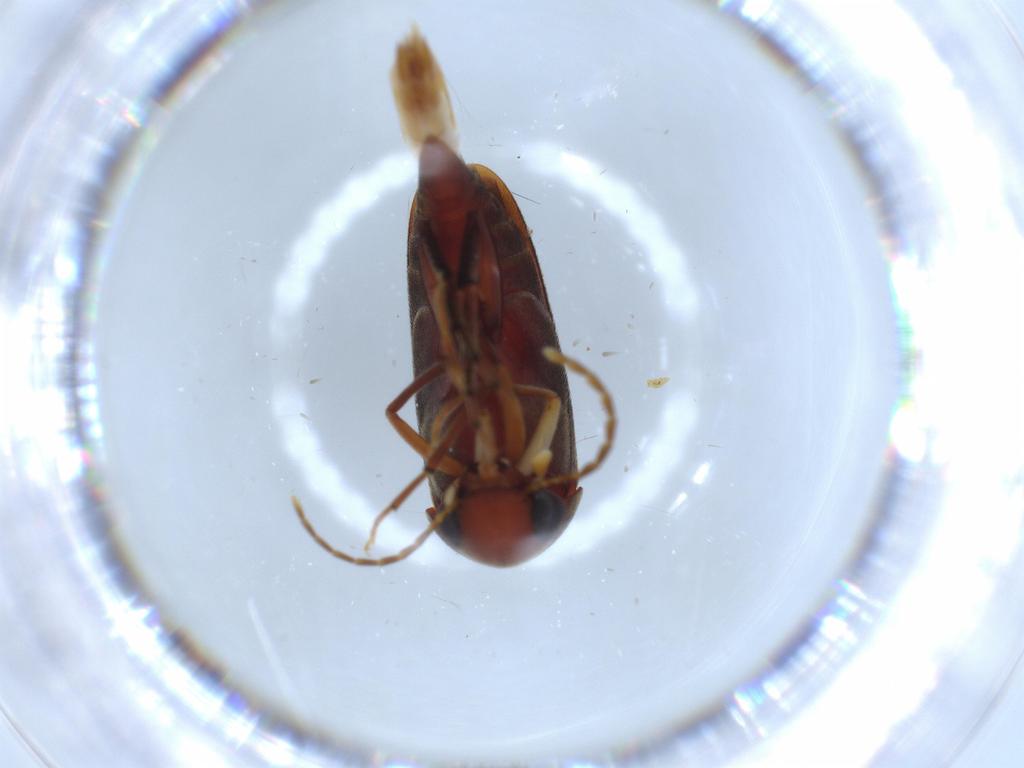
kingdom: Animalia
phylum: Arthropoda
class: Insecta
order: Coleoptera
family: Mordellidae
